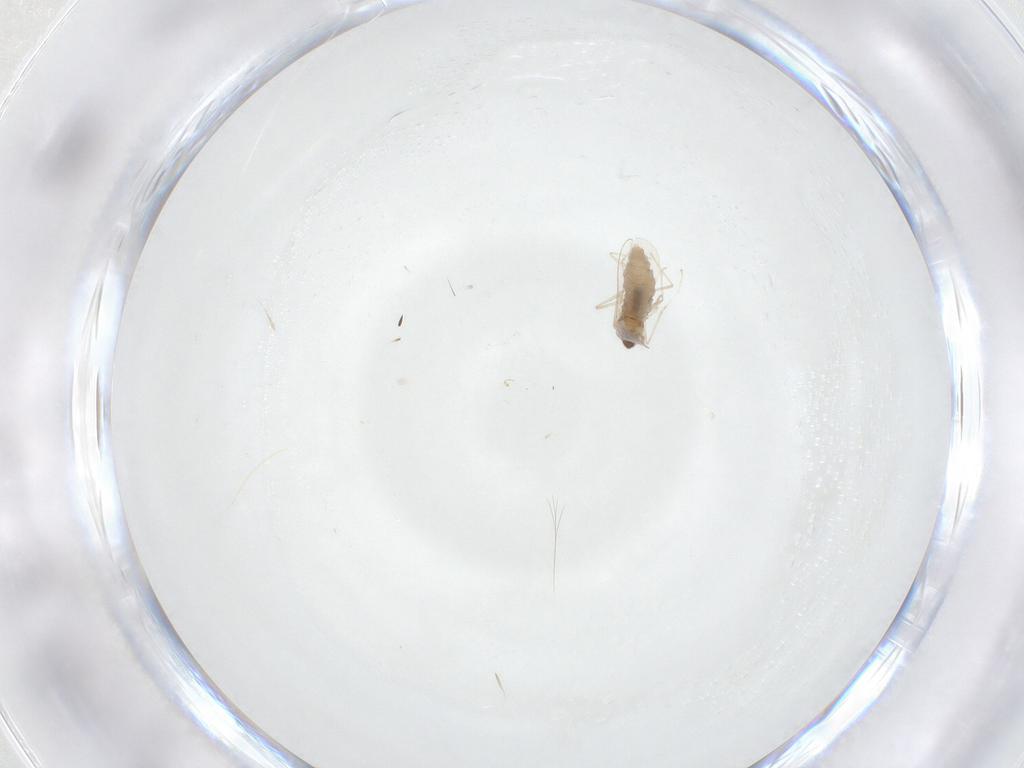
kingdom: Animalia
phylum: Arthropoda
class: Insecta
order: Diptera
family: Cecidomyiidae
